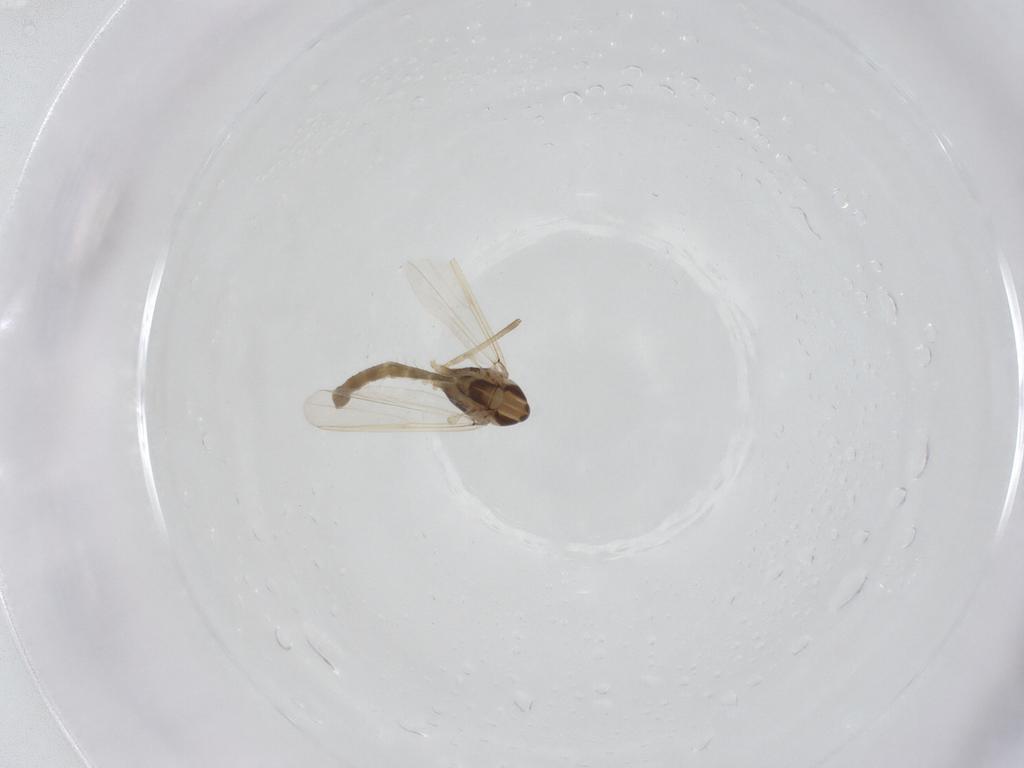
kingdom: Animalia
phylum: Arthropoda
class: Insecta
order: Diptera
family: Chironomidae
